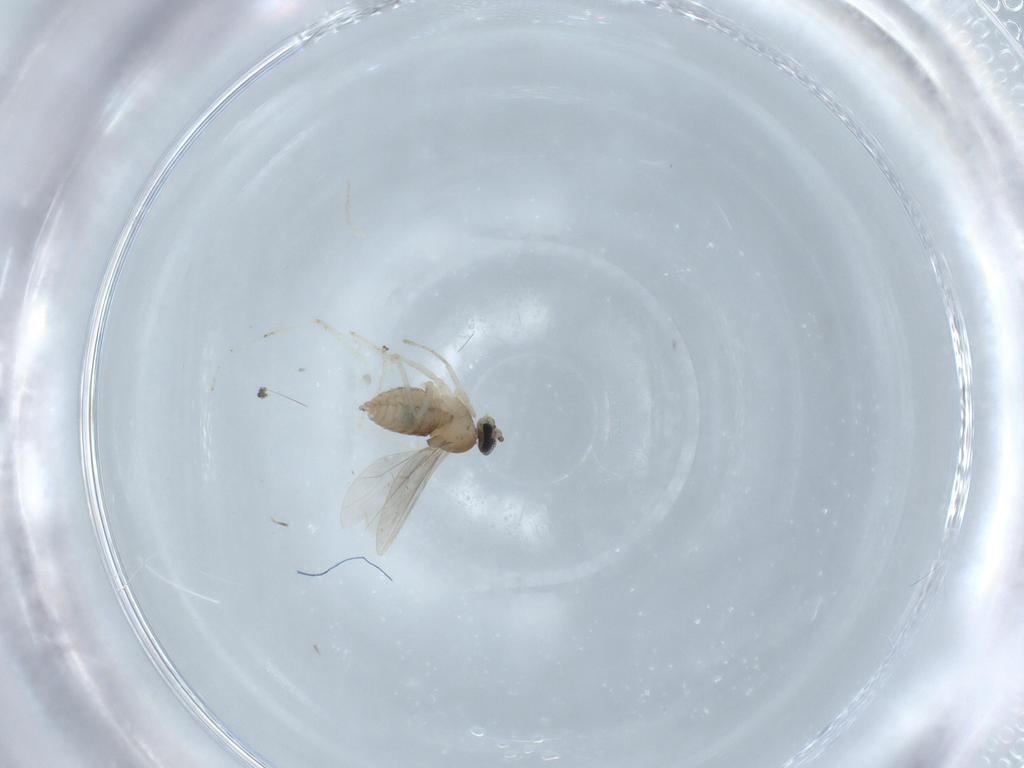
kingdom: Animalia
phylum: Arthropoda
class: Insecta
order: Diptera
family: Cecidomyiidae
